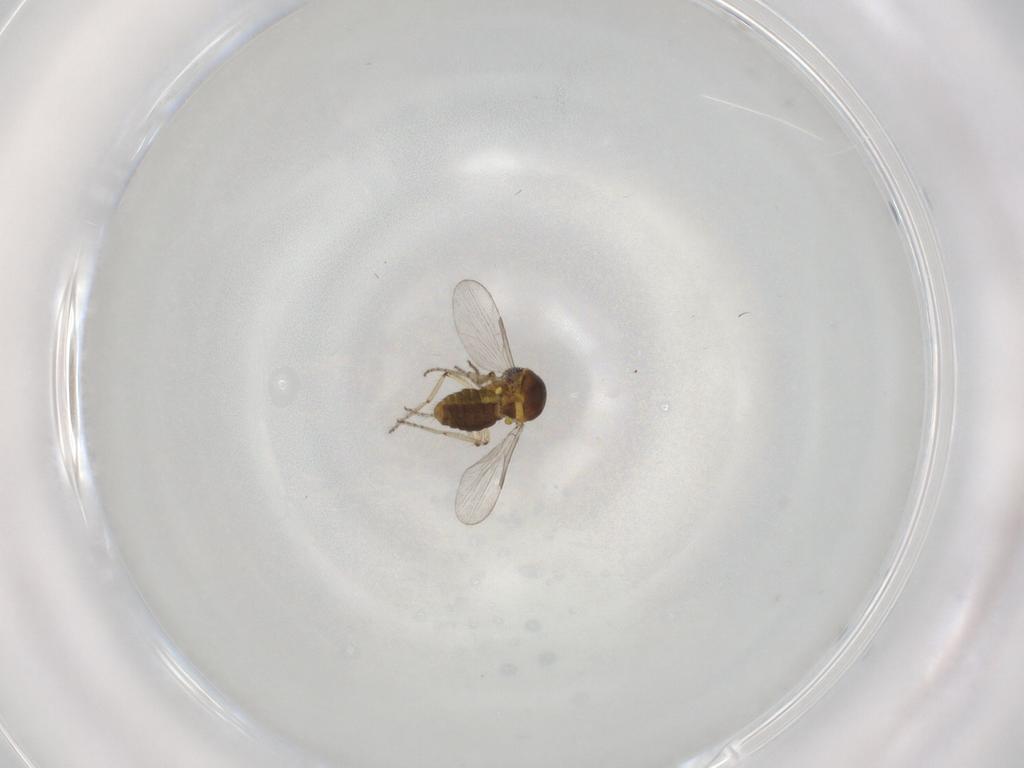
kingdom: Animalia
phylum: Arthropoda
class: Insecta
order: Diptera
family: Ceratopogonidae
